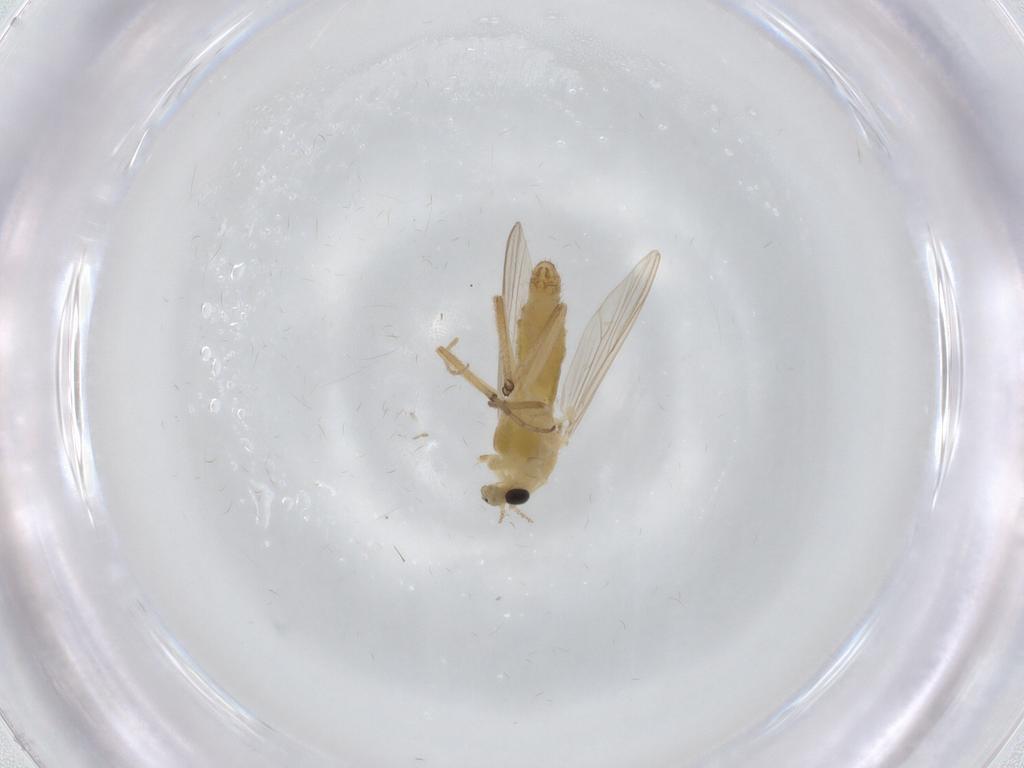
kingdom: Animalia
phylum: Arthropoda
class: Insecta
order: Diptera
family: Chironomidae
